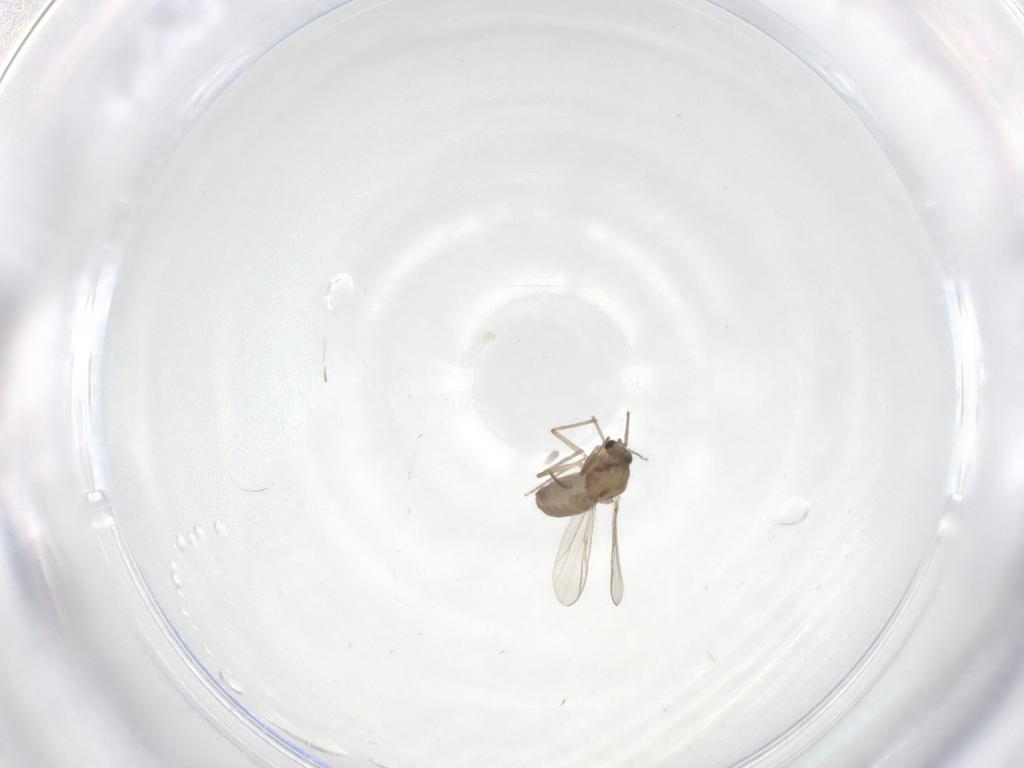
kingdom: Animalia
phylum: Arthropoda
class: Insecta
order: Diptera
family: Chironomidae
